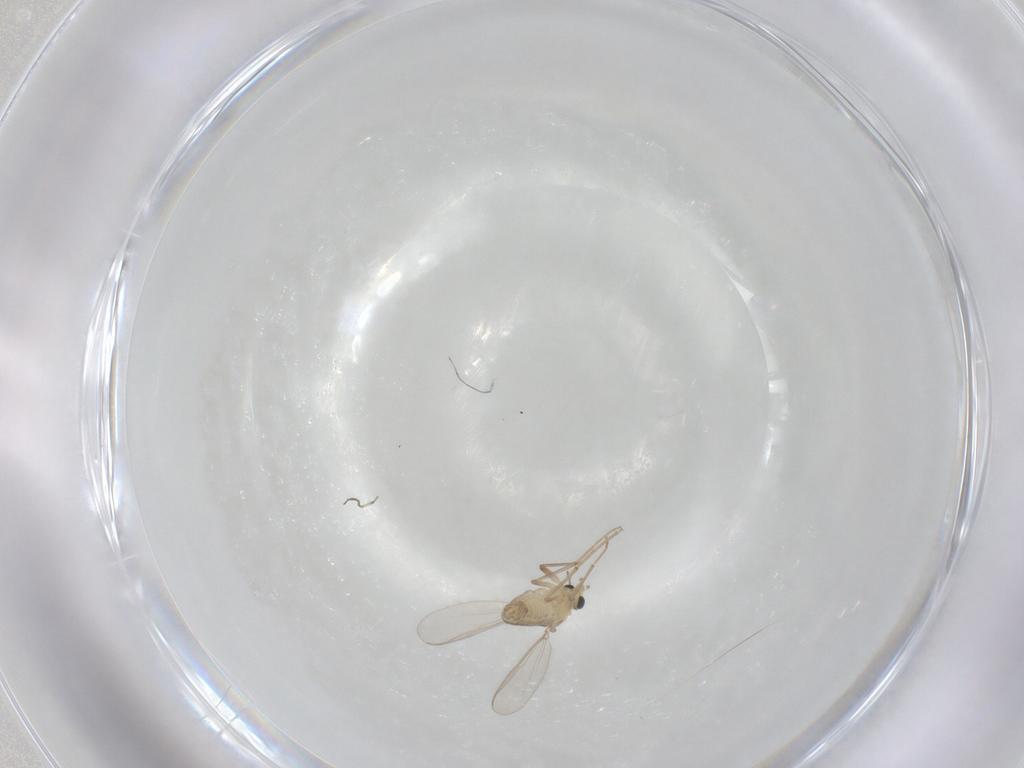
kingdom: Animalia
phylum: Arthropoda
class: Insecta
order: Diptera
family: Chironomidae
